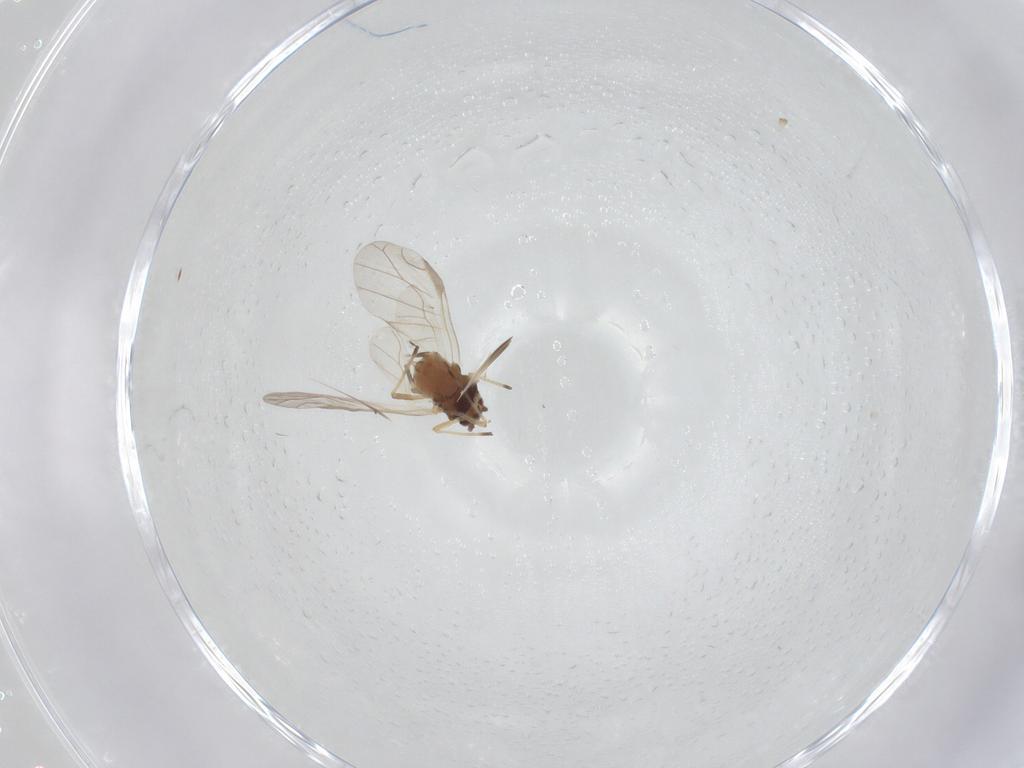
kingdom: Animalia
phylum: Arthropoda
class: Insecta
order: Hemiptera
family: Aphididae
